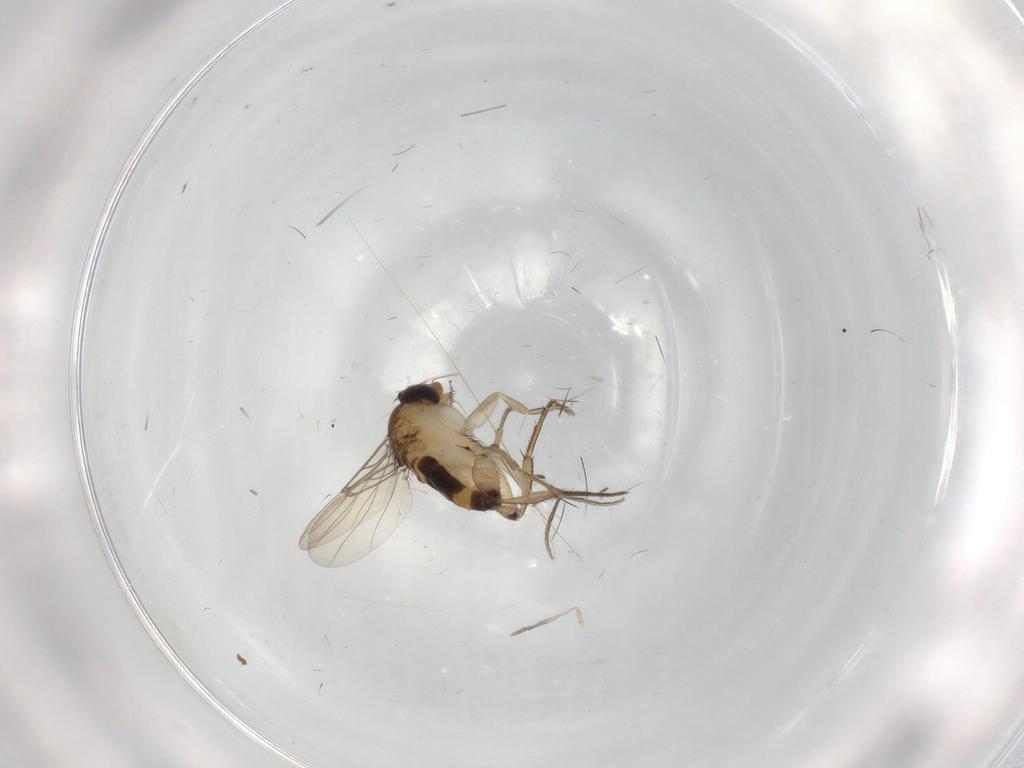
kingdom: Animalia
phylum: Arthropoda
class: Insecta
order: Diptera
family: Phoridae
